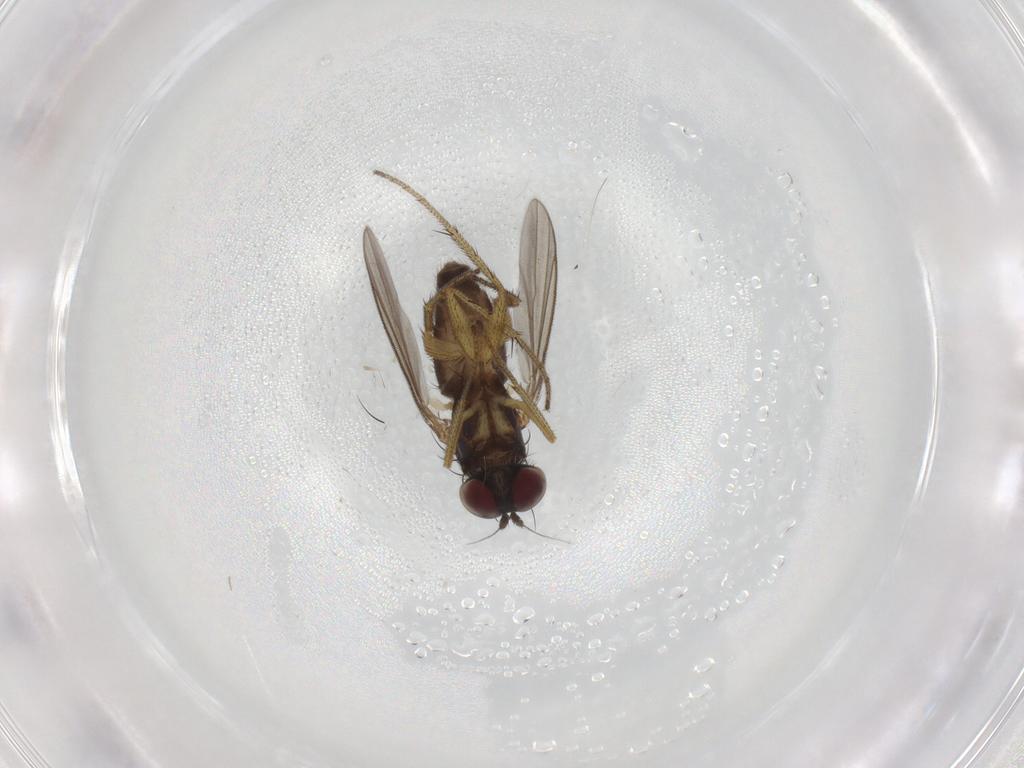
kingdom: Animalia
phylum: Arthropoda
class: Insecta
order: Diptera
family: Dolichopodidae
